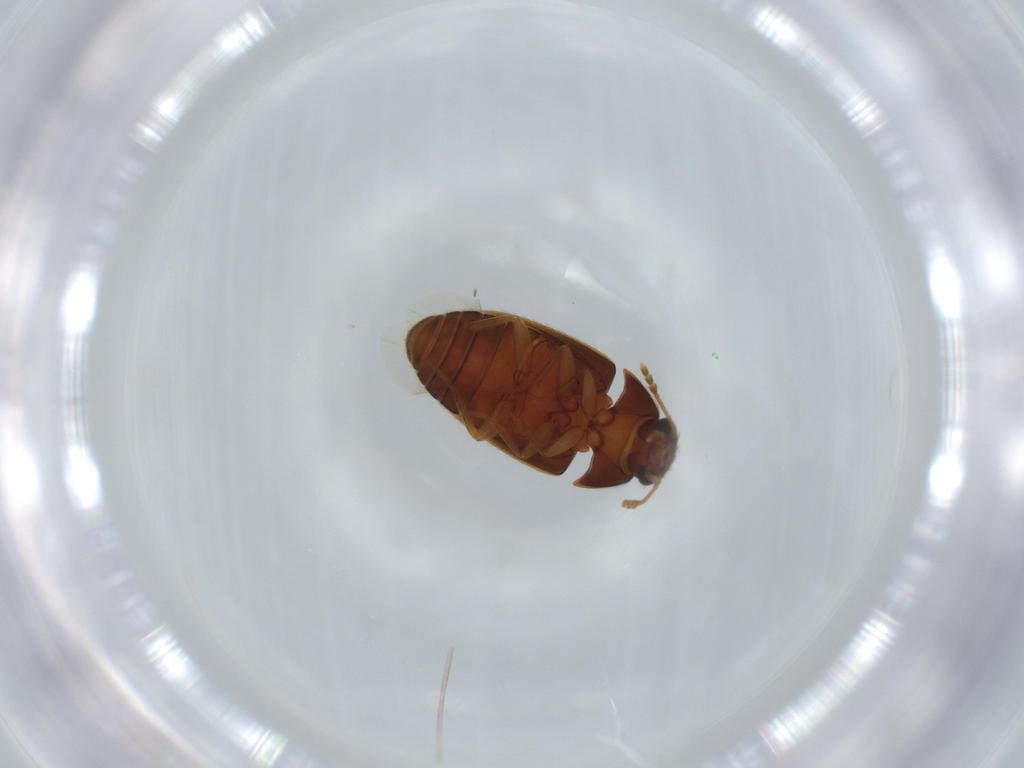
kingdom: Animalia
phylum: Arthropoda
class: Insecta
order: Coleoptera
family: Mycetophagidae
